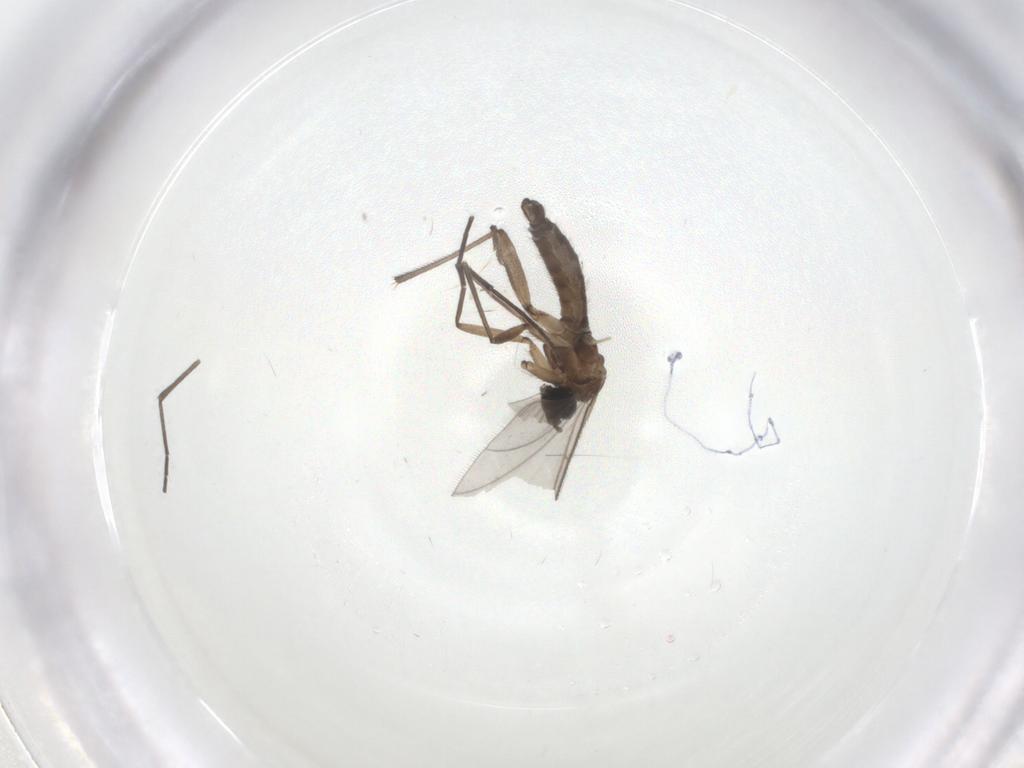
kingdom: Animalia
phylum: Arthropoda
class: Insecta
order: Diptera
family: Sciaridae
